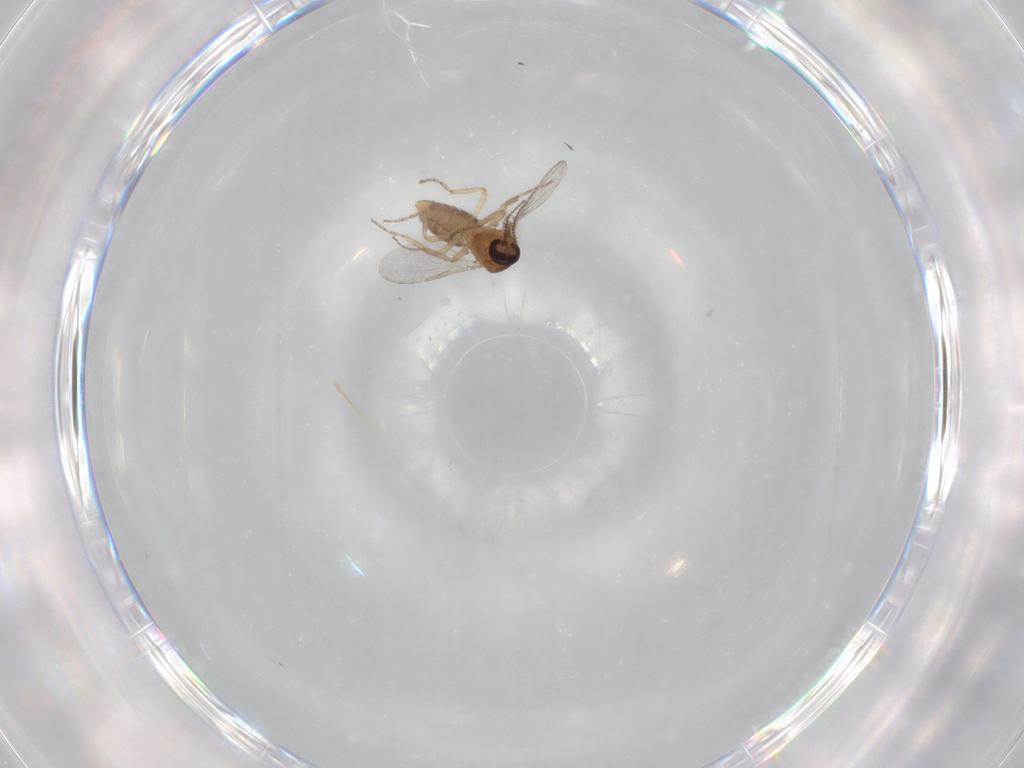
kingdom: Animalia
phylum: Arthropoda
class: Insecta
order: Diptera
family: Ceratopogonidae
